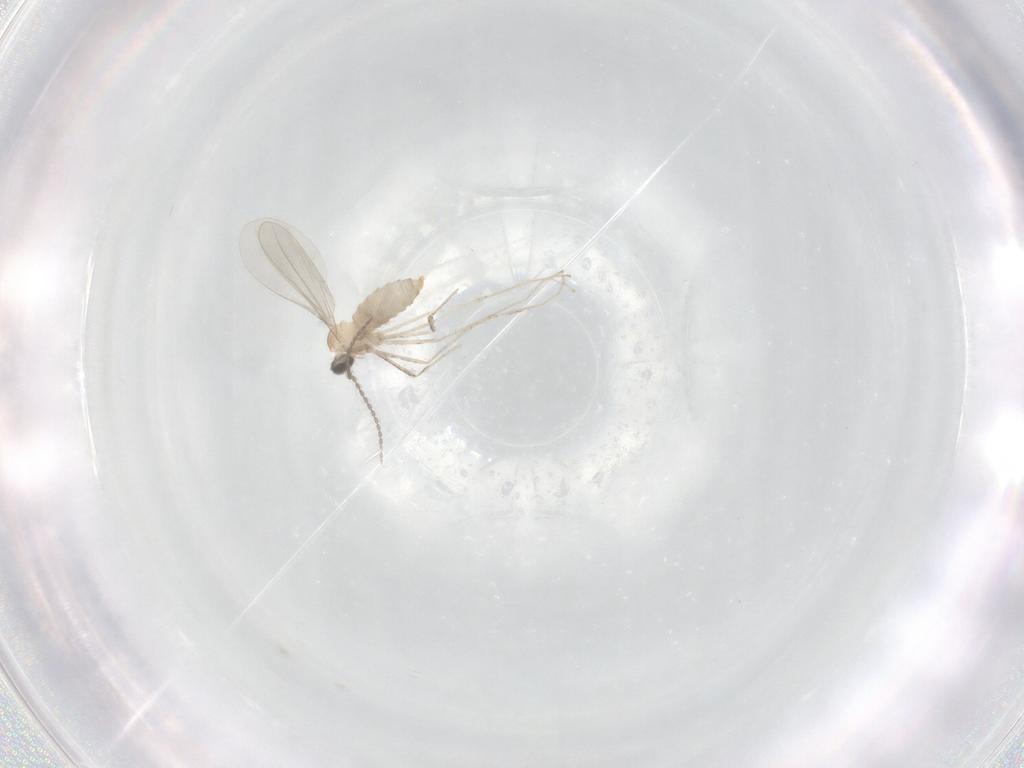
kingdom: Animalia
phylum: Arthropoda
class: Insecta
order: Diptera
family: Cecidomyiidae
